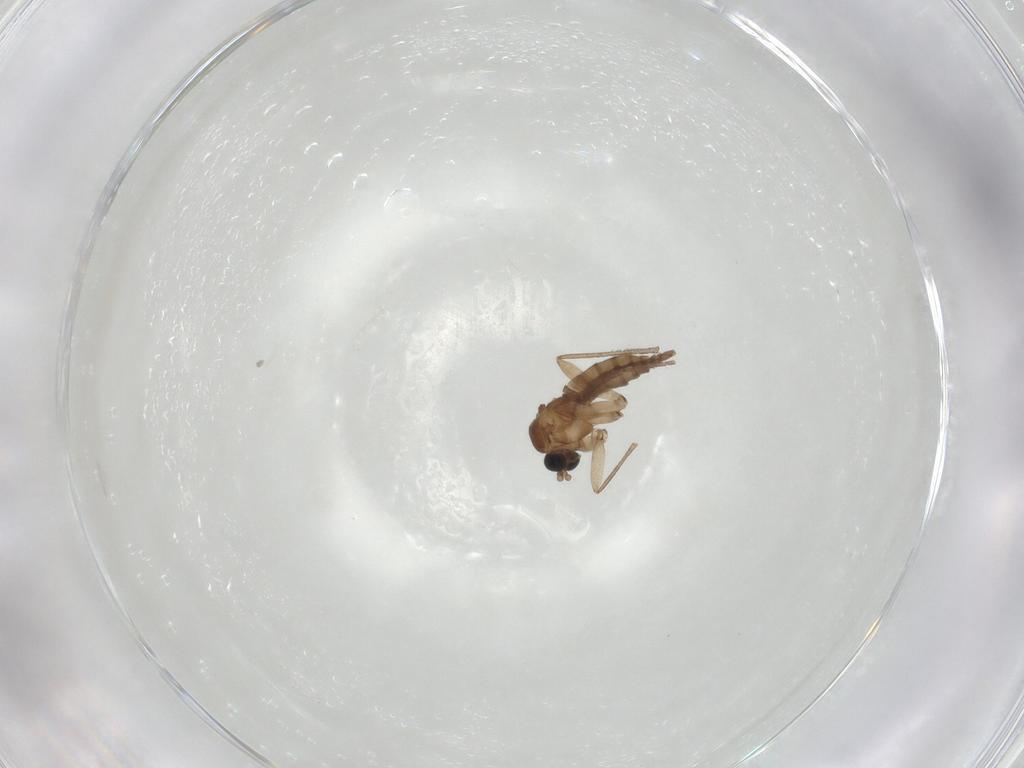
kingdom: Animalia
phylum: Arthropoda
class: Insecta
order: Diptera
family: Sciaridae
